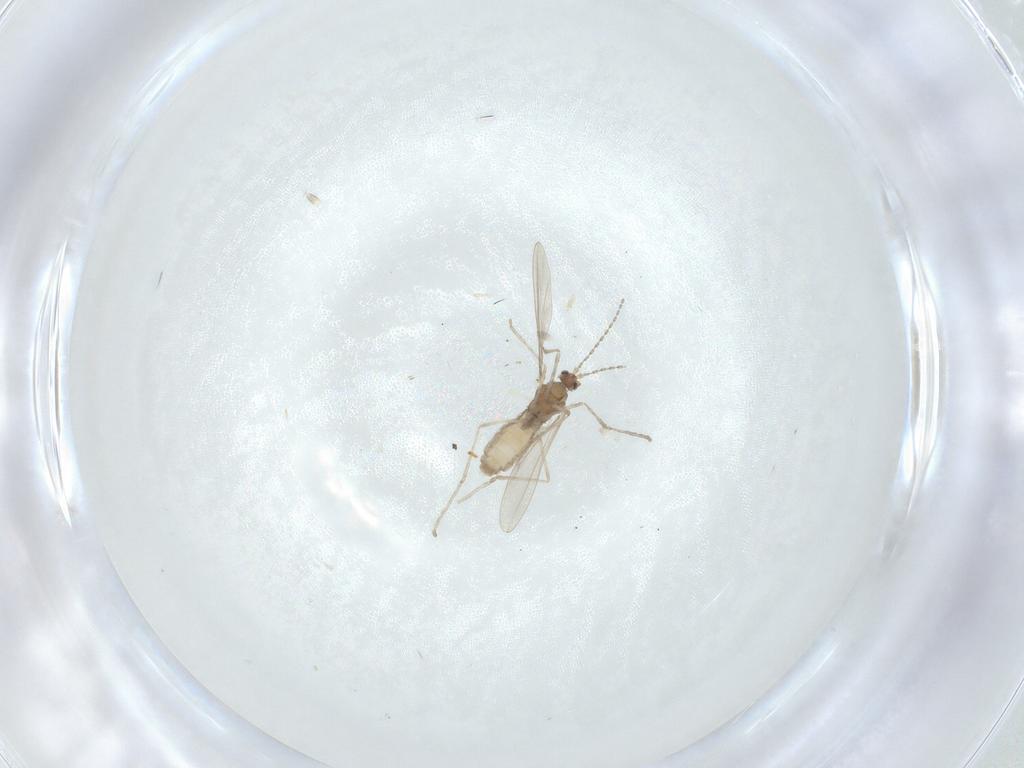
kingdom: Animalia
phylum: Arthropoda
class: Insecta
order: Diptera
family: Cecidomyiidae
